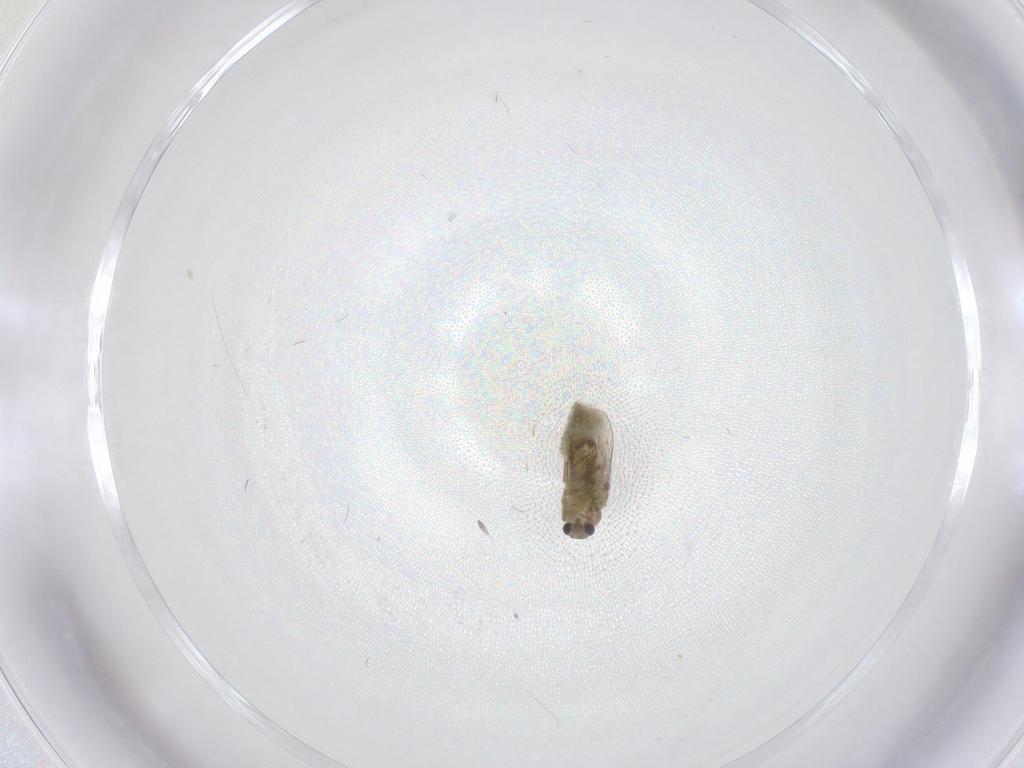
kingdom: Animalia
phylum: Arthropoda
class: Insecta
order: Diptera
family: Chironomidae
